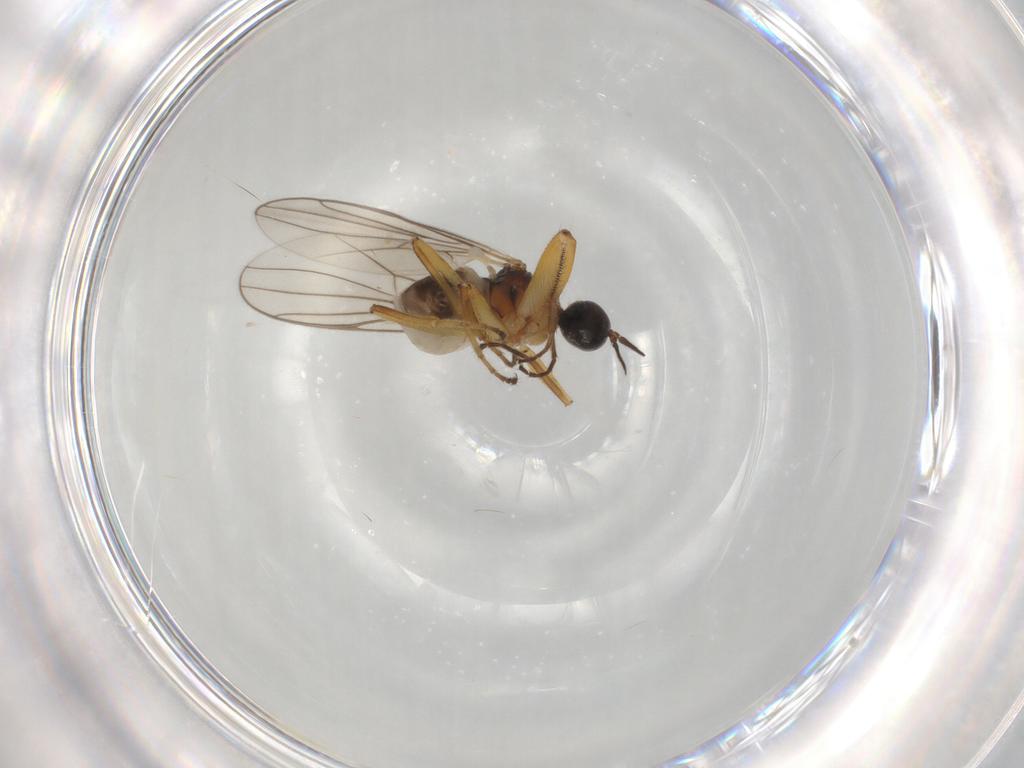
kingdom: Animalia
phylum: Arthropoda
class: Insecta
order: Diptera
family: Hybotidae
